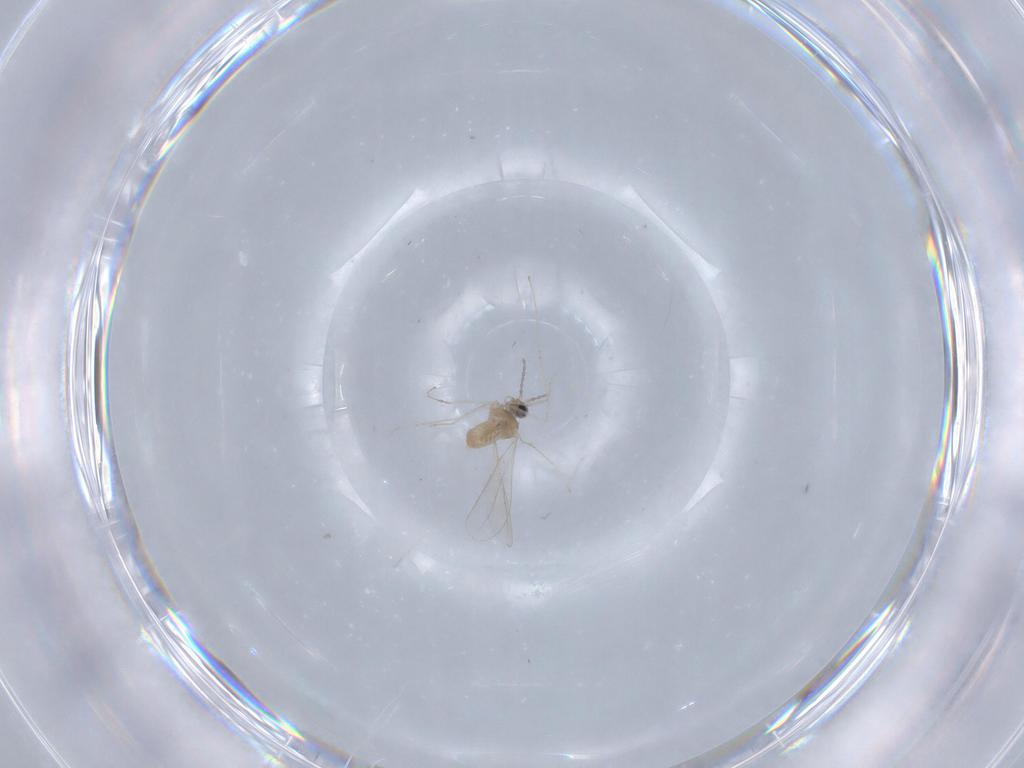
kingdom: Animalia
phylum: Arthropoda
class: Insecta
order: Diptera
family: Cecidomyiidae
